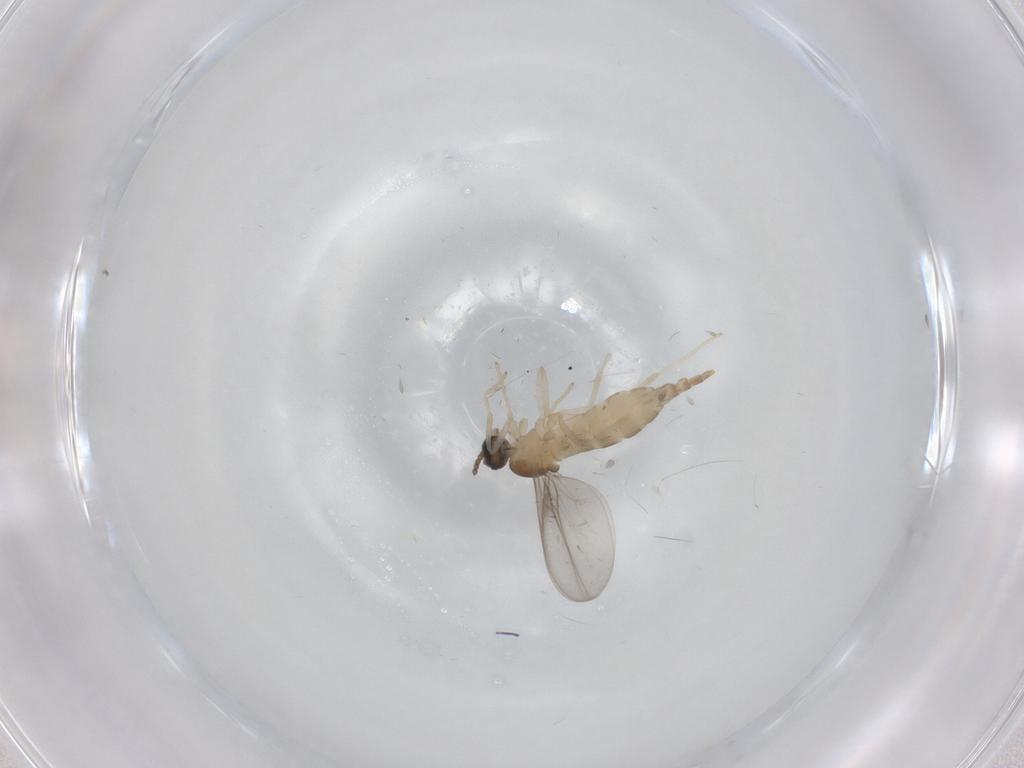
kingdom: Animalia
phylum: Arthropoda
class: Insecta
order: Diptera
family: Cecidomyiidae
